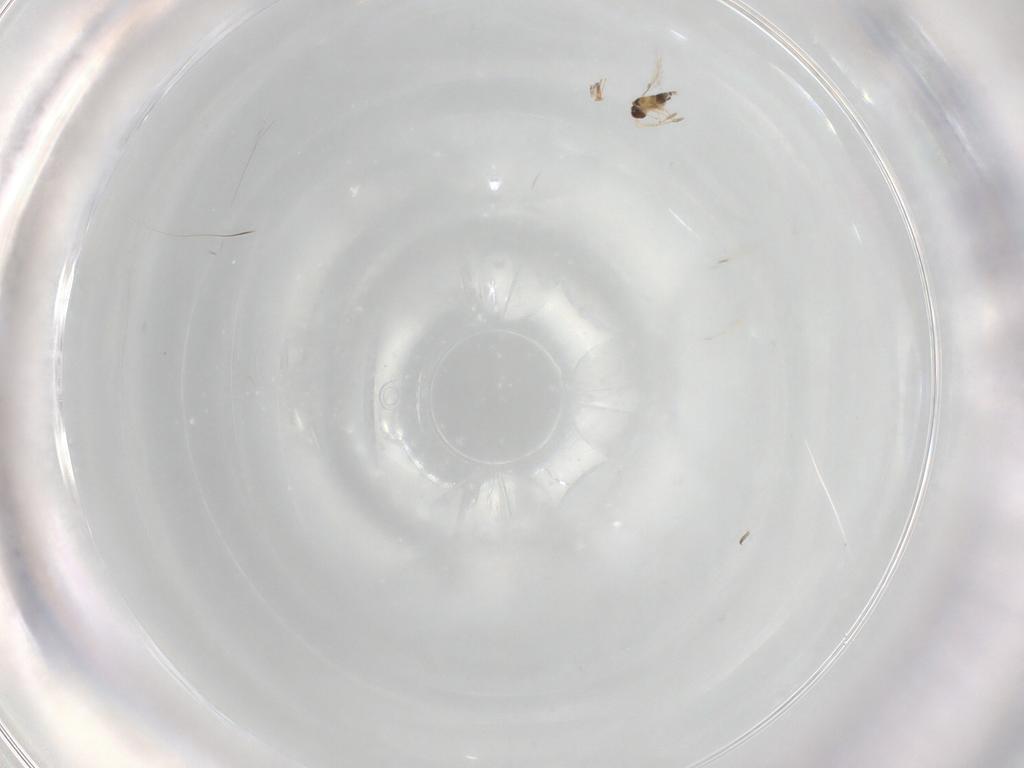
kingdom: Animalia
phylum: Arthropoda
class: Insecta
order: Hymenoptera
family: Mymaridae
